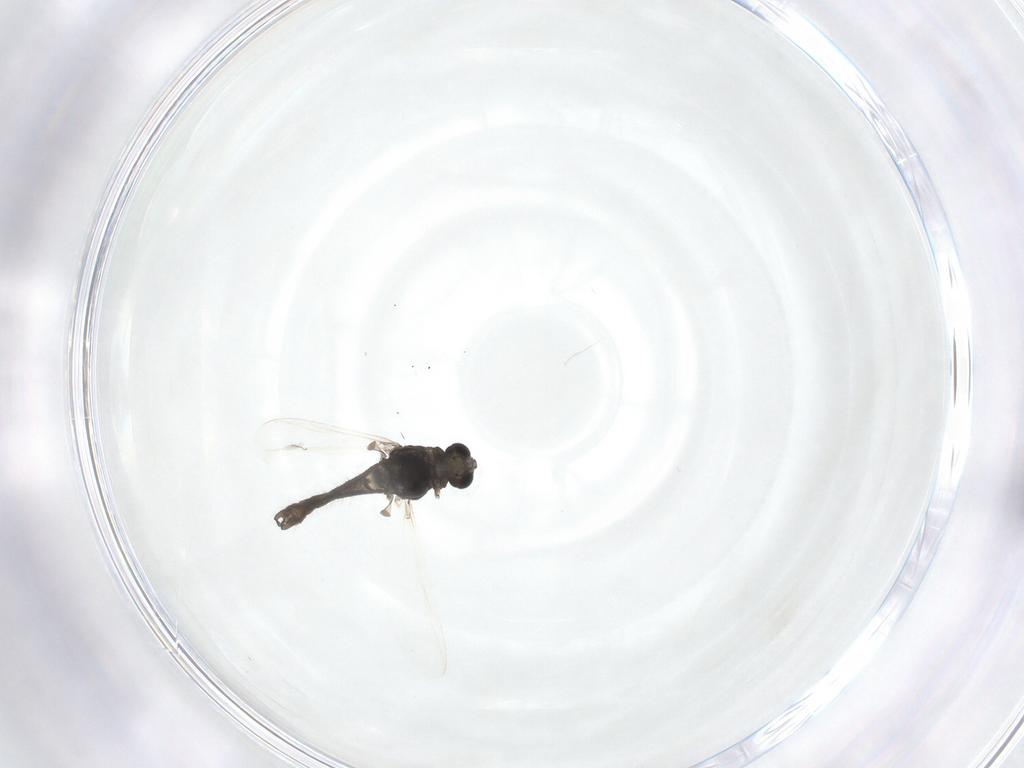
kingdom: Animalia
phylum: Arthropoda
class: Insecta
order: Diptera
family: Chironomidae
